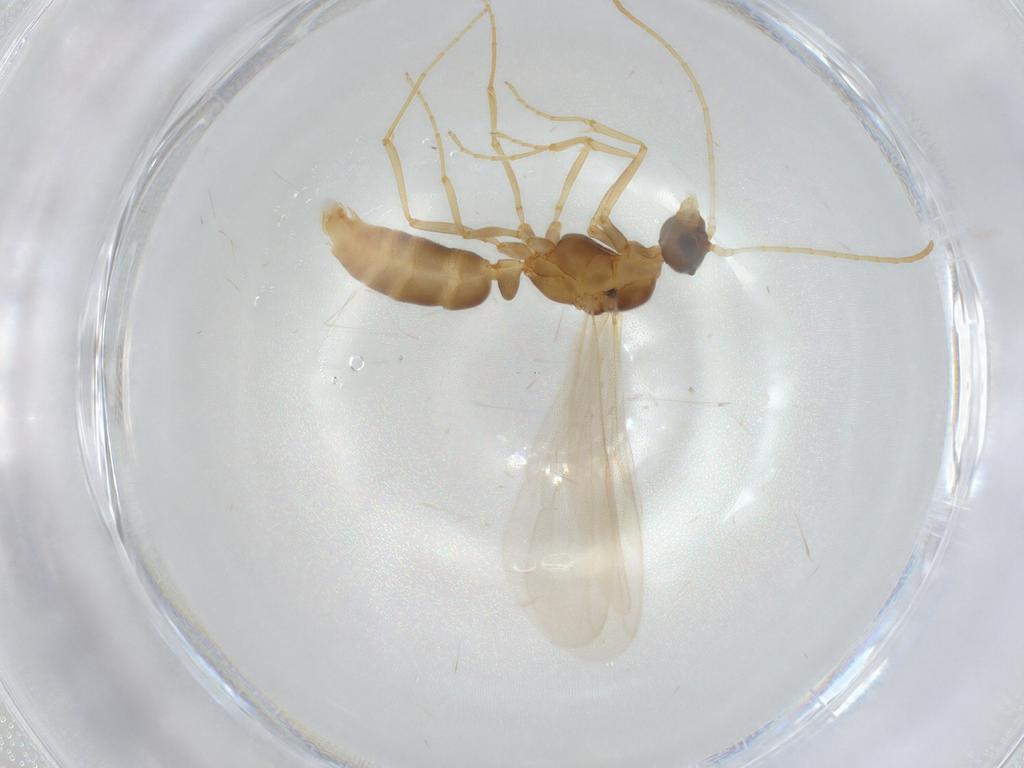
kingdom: Animalia
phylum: Arthropoda
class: Insecta
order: Hymenoptera
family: Formicidae
